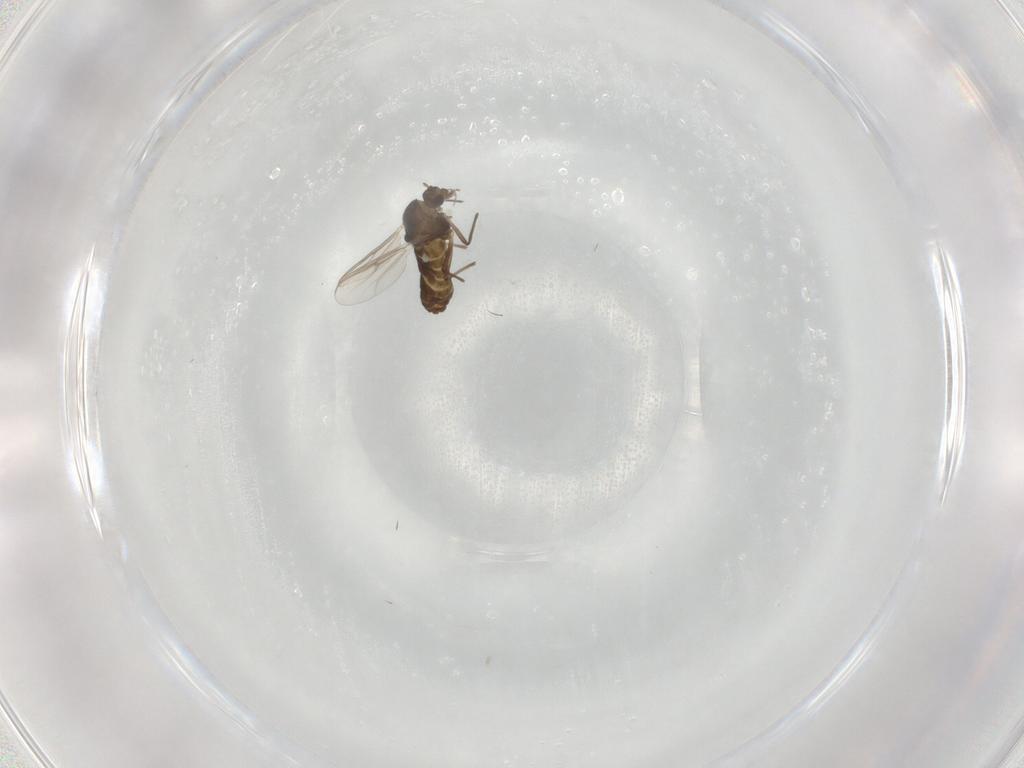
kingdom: Animalia
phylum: Arthropoda
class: Insecta
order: Diptera
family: Chironomidae
